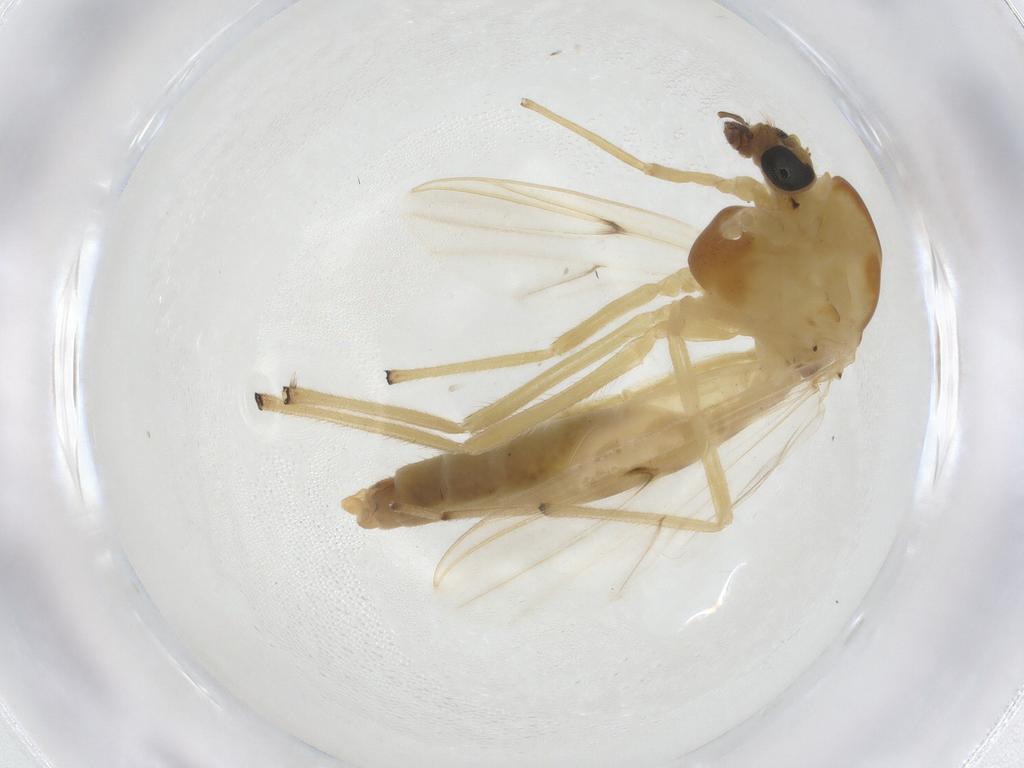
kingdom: Animalia
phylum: Arthropoda
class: Insecta
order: Diptera
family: Chironomidae
